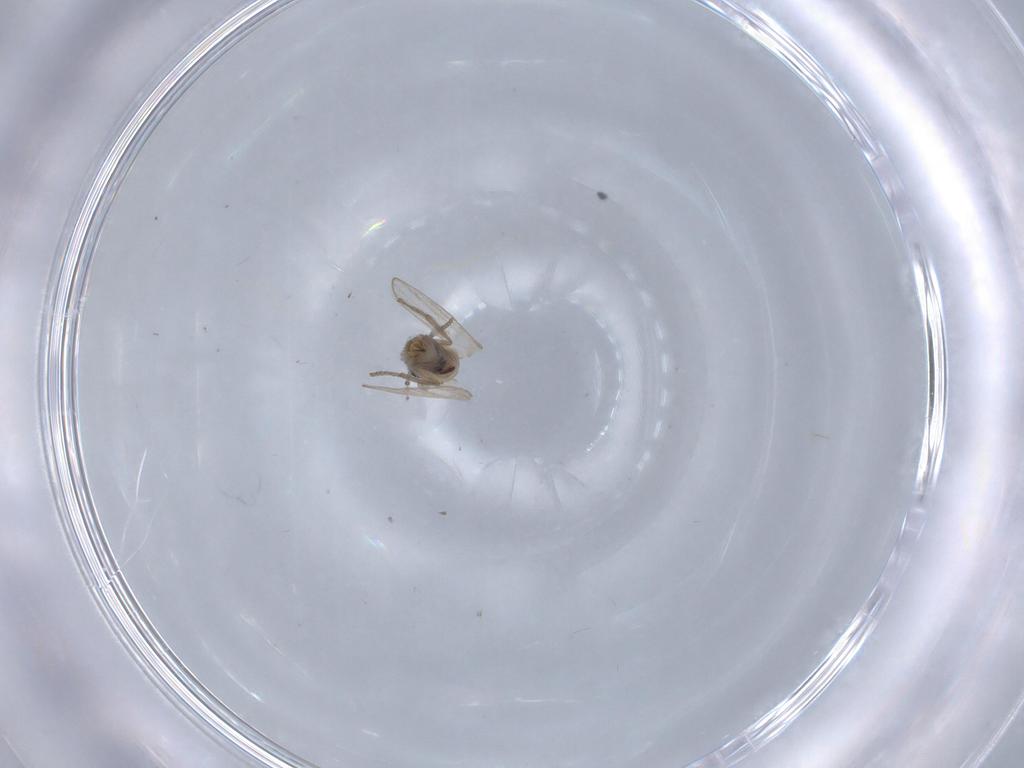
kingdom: Animalia
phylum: Arthropoda
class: Insecta
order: Diptera
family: Psychodidae
